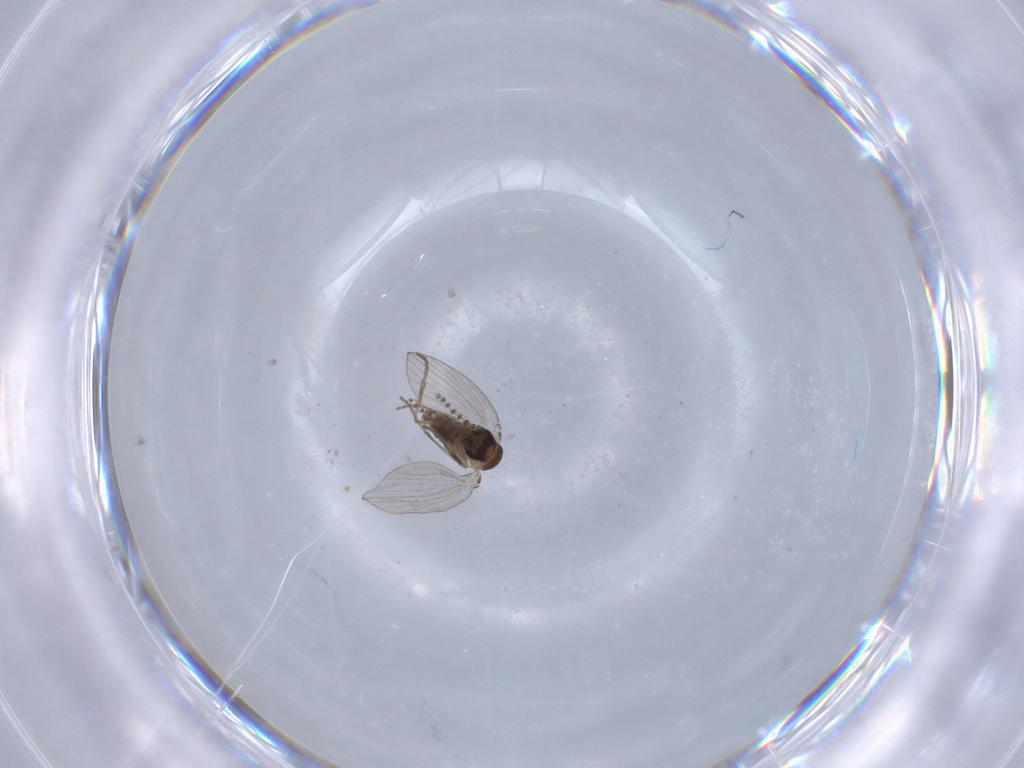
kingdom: Animalia
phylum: Arthropoda
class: Insecta
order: Diptera
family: Psychodidae
